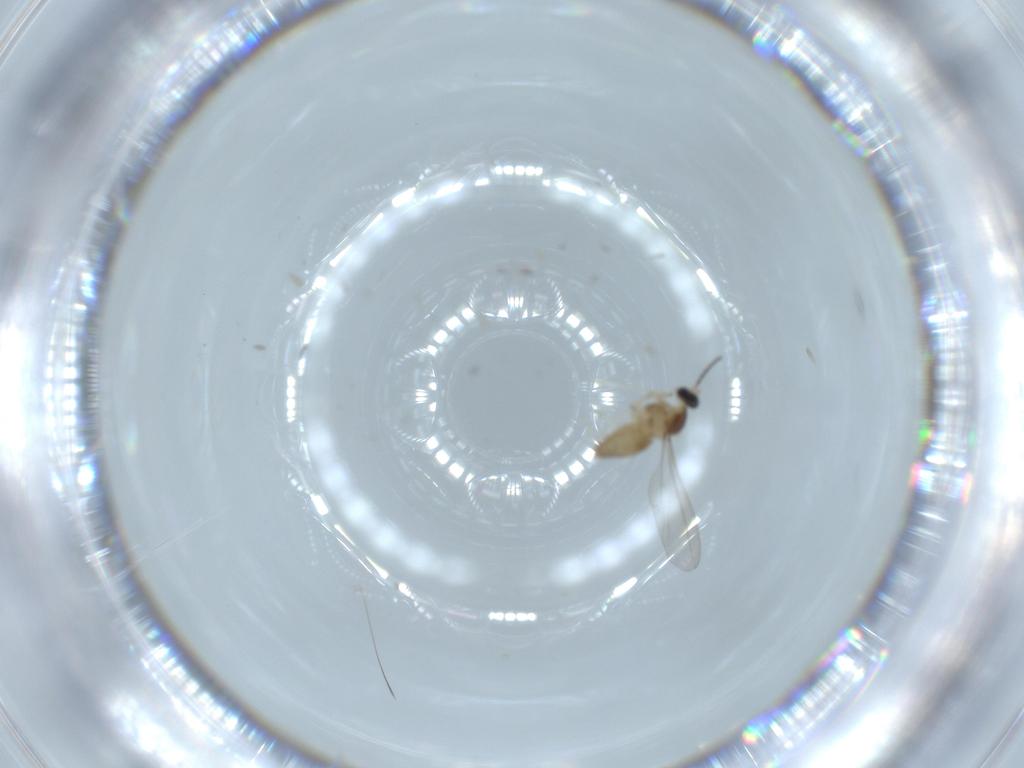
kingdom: Animalia
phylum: Arthropoda
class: Insecta
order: Diptera
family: Cecidomyiidae
